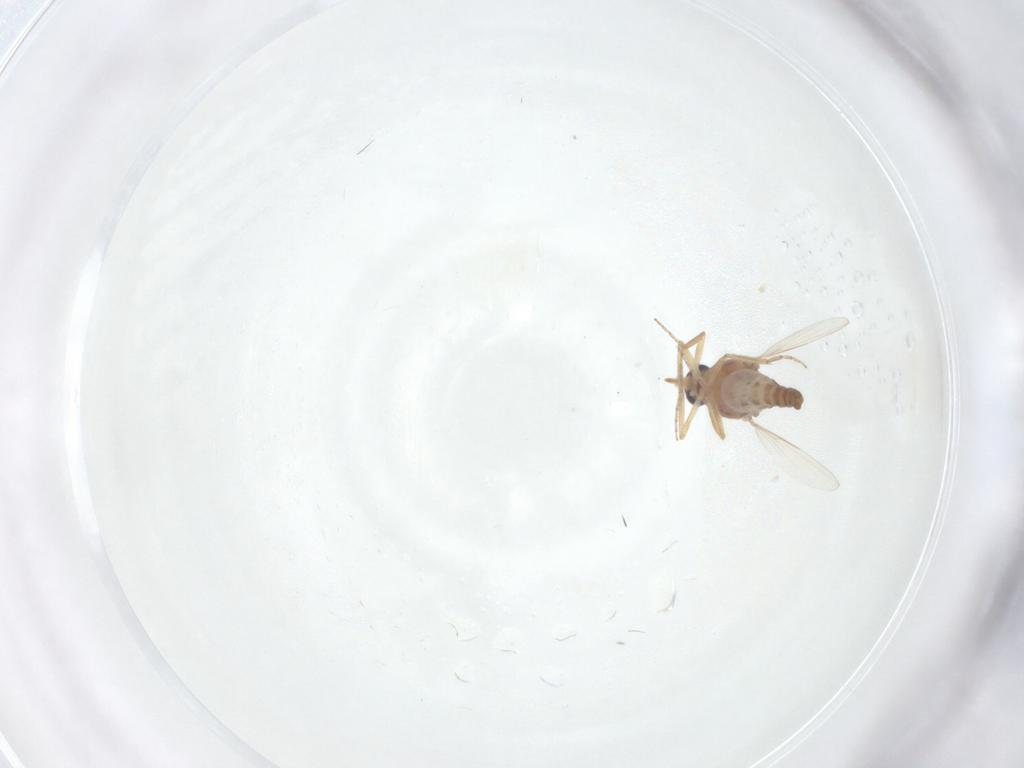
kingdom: Animalia
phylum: Arthropoda
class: Insecta
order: Diptera
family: Ceratopogonidae
